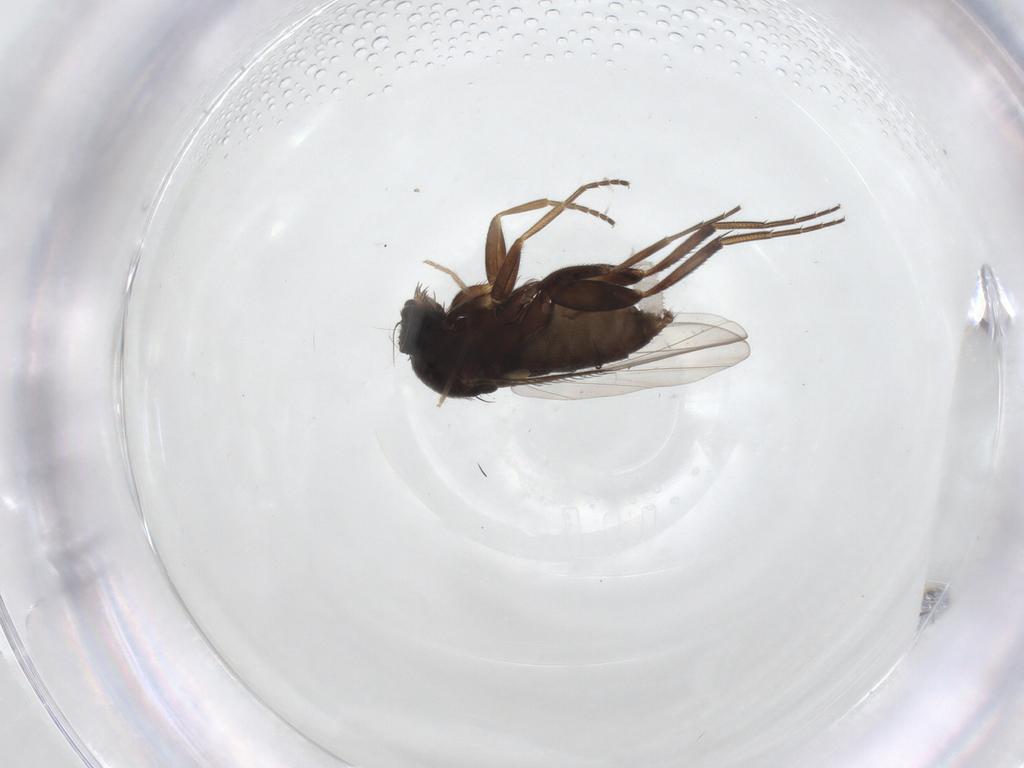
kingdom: Animalia
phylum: Arthropoda
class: Insecta
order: Diptera
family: Phoridae
